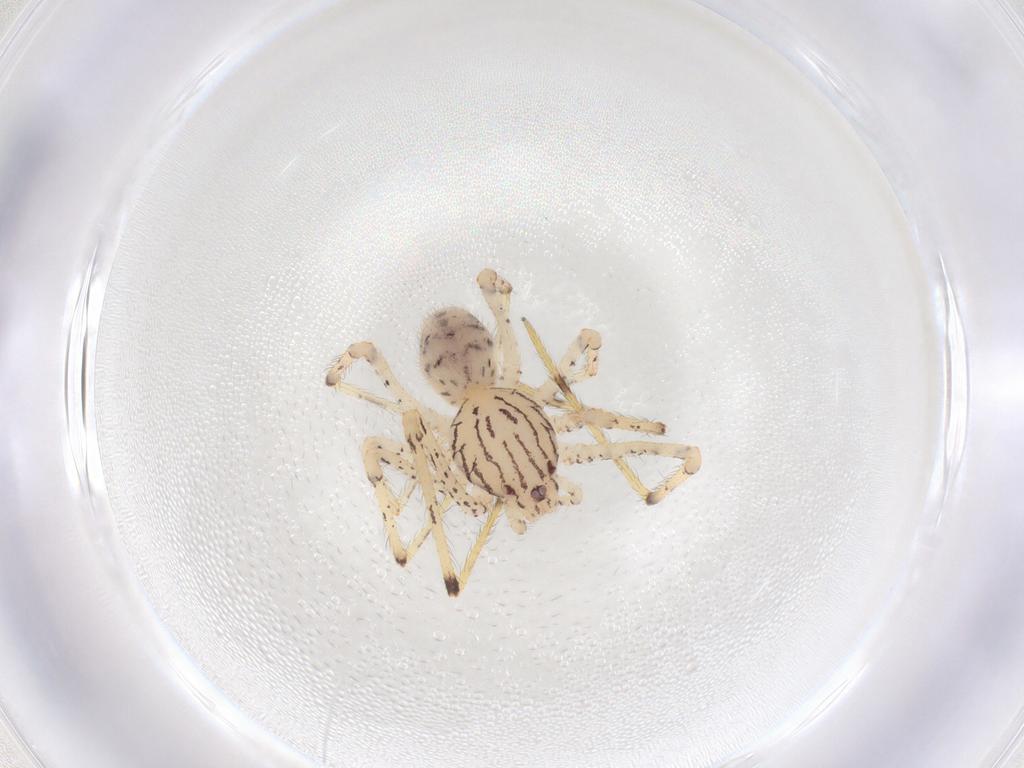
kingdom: Animalia
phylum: Arthropoda
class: Arachnida
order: Araneae
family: Scytodidae
